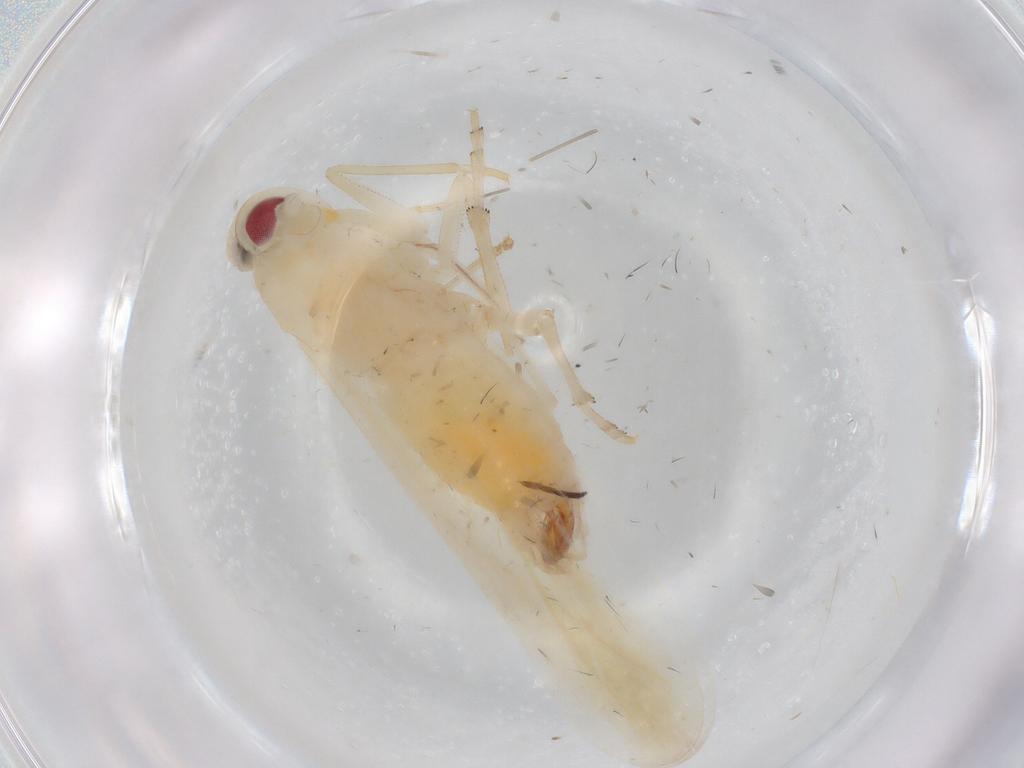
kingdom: Animalia
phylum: Arthropoda
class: Insecta
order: Hemiptera
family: Derbidae
